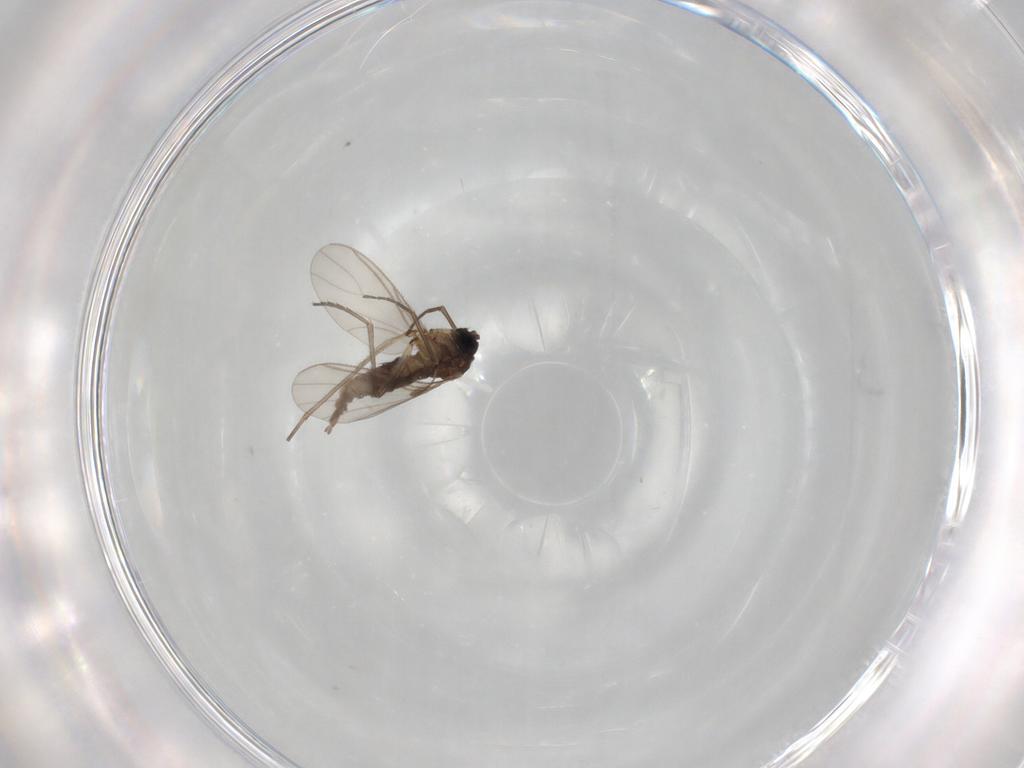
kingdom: Animalia
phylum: Arthropoda
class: Insecta
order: Diptera
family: Sciaridae
